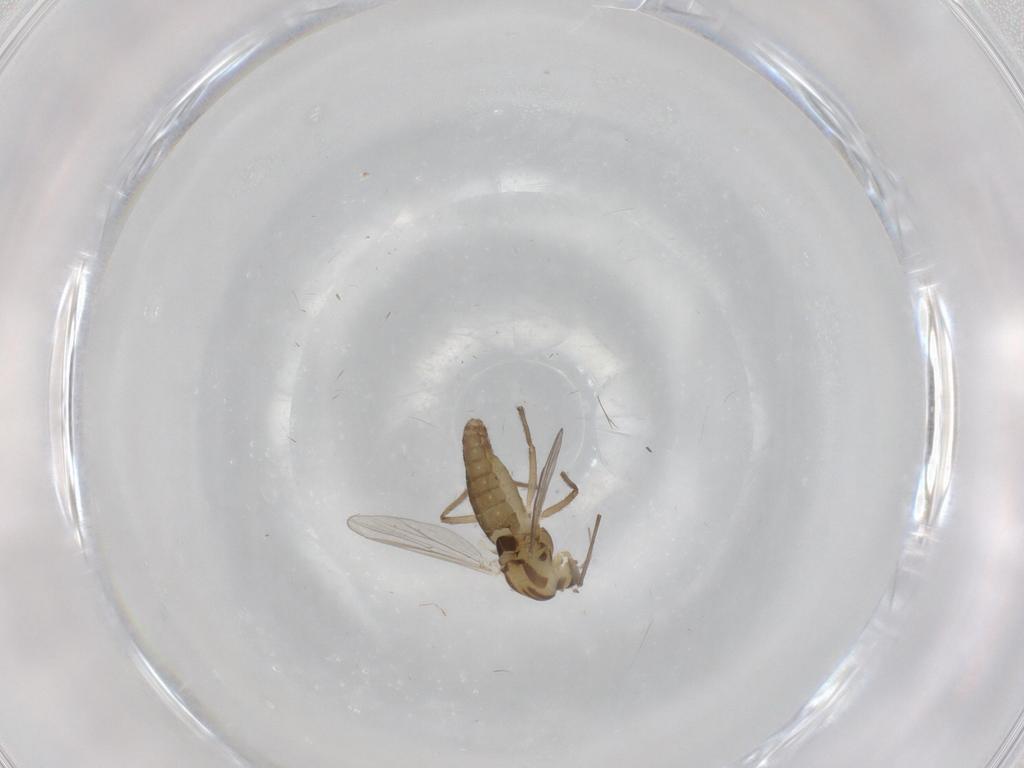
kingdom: Animalia
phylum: Arthropoda
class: Insecta
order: Diptera
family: Chironomidae
